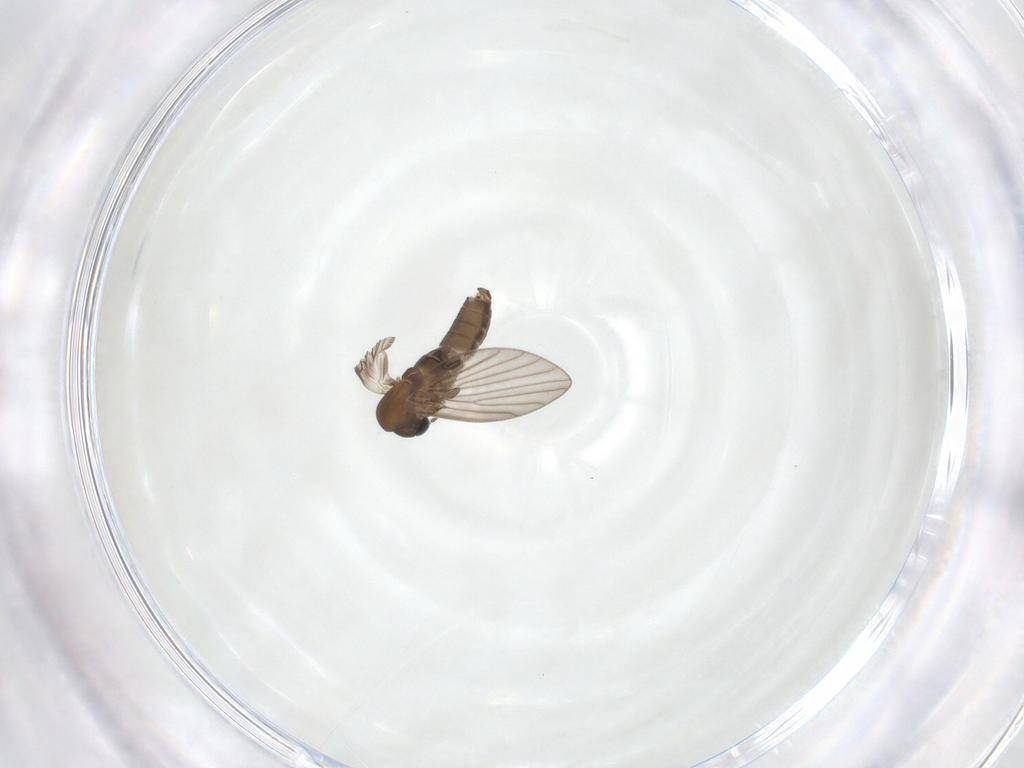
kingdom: Animalia
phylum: Arthropoda
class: Insecta
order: Diptera
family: Psychodidae
